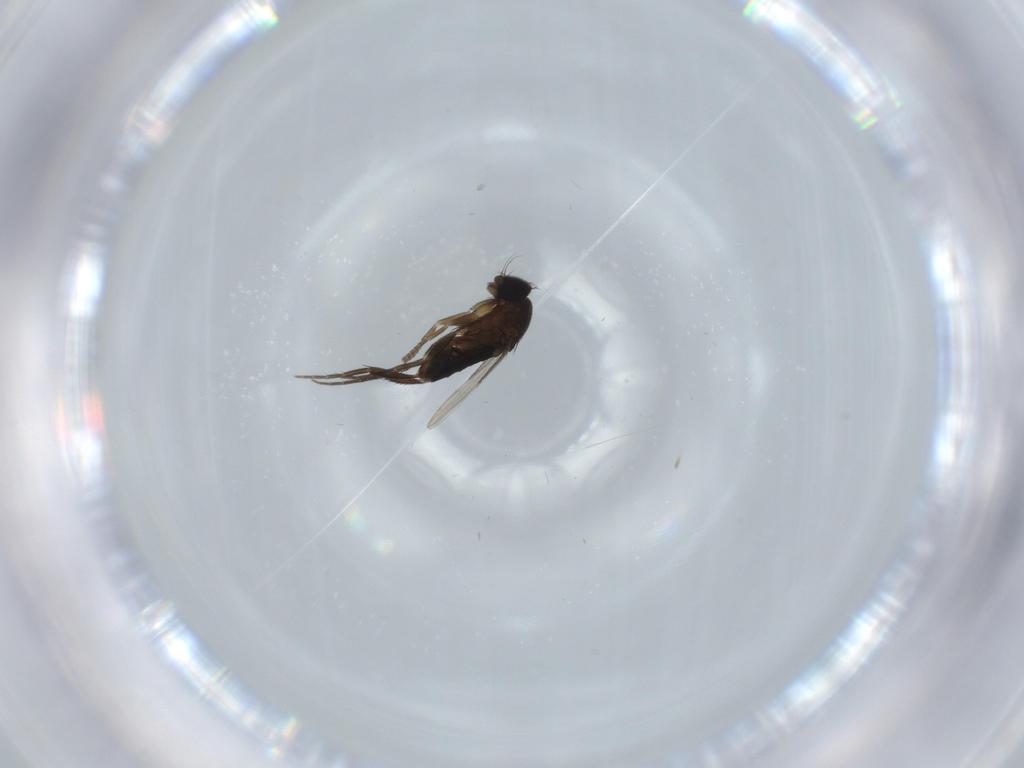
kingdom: Animalia
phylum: Arthropoda
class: Insecta
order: Diptera
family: Phoridae
